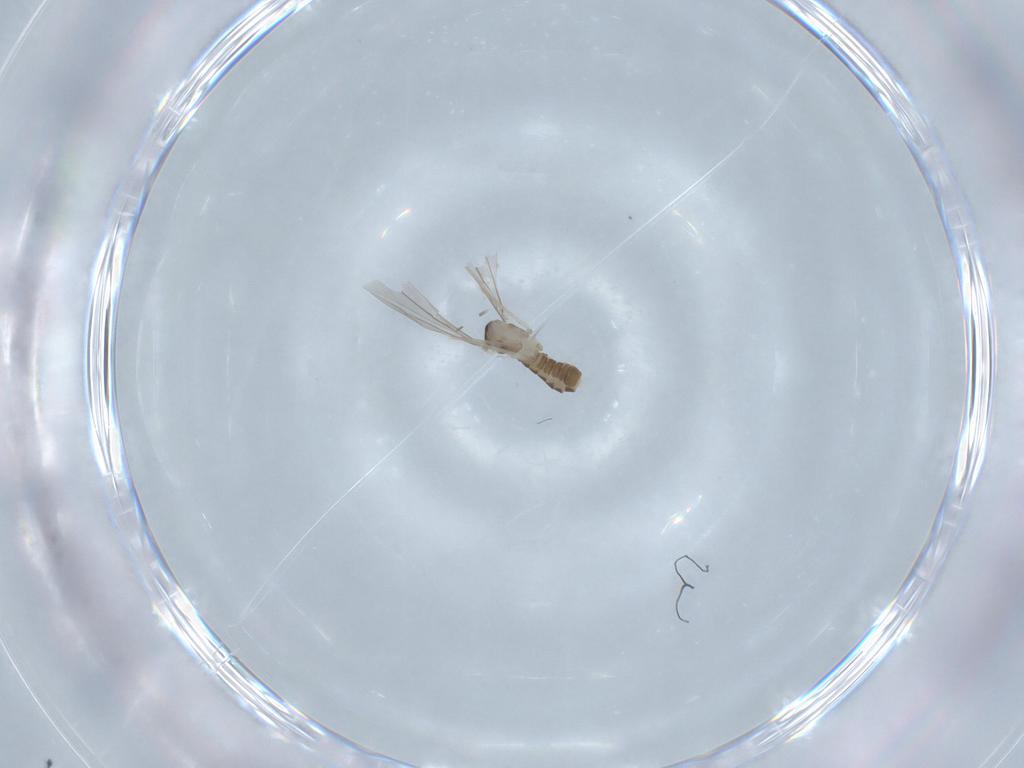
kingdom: Animalia
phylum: Arthropoda
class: Insecta
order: Diptera
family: Cecidomyiidae
